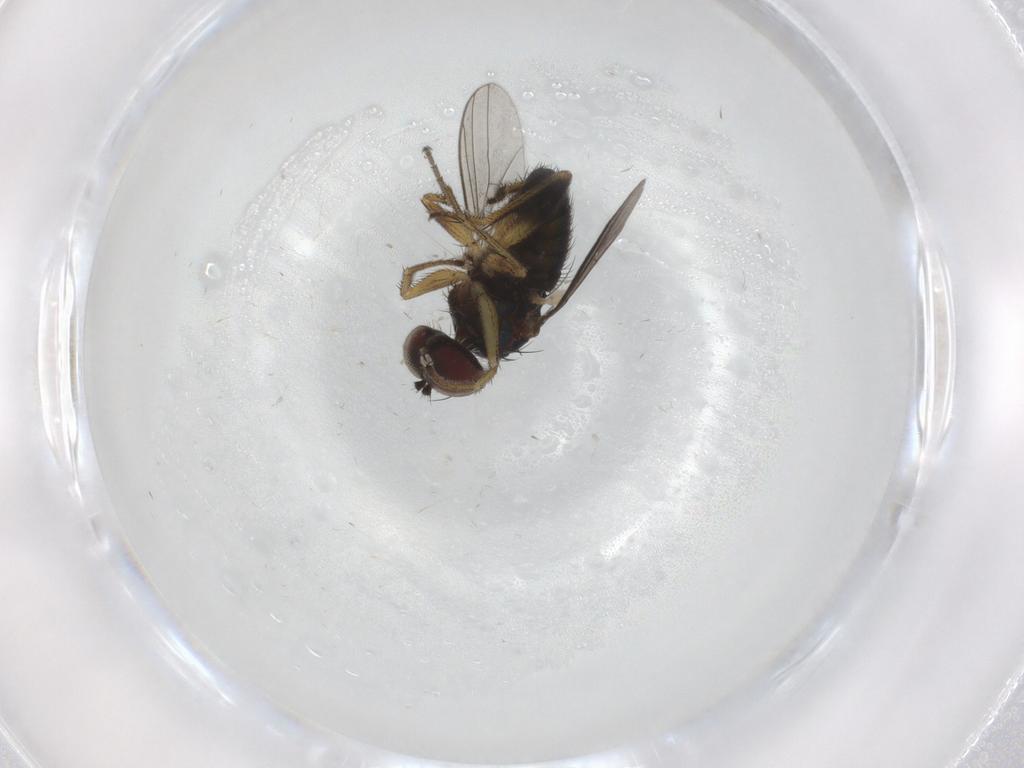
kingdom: Animalia
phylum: Arthropoda
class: Insecta
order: Diptera
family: Dolichopodidae
